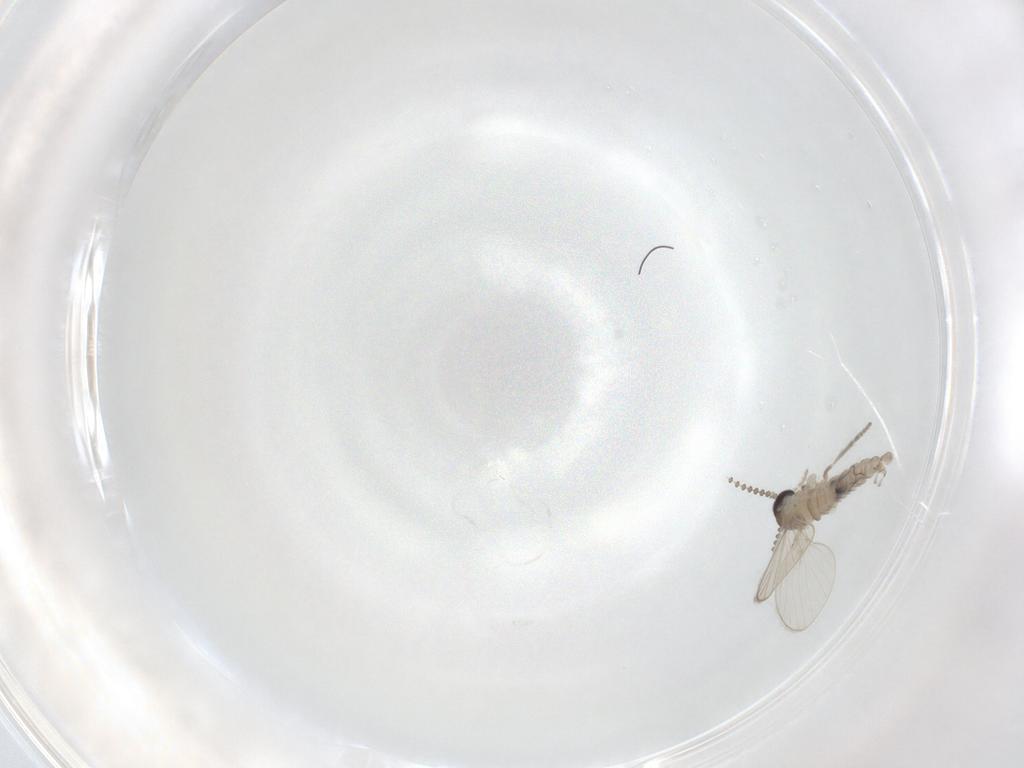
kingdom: Animalia
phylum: Arthropoda
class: Insecta
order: Diptera
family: Psychodidae
